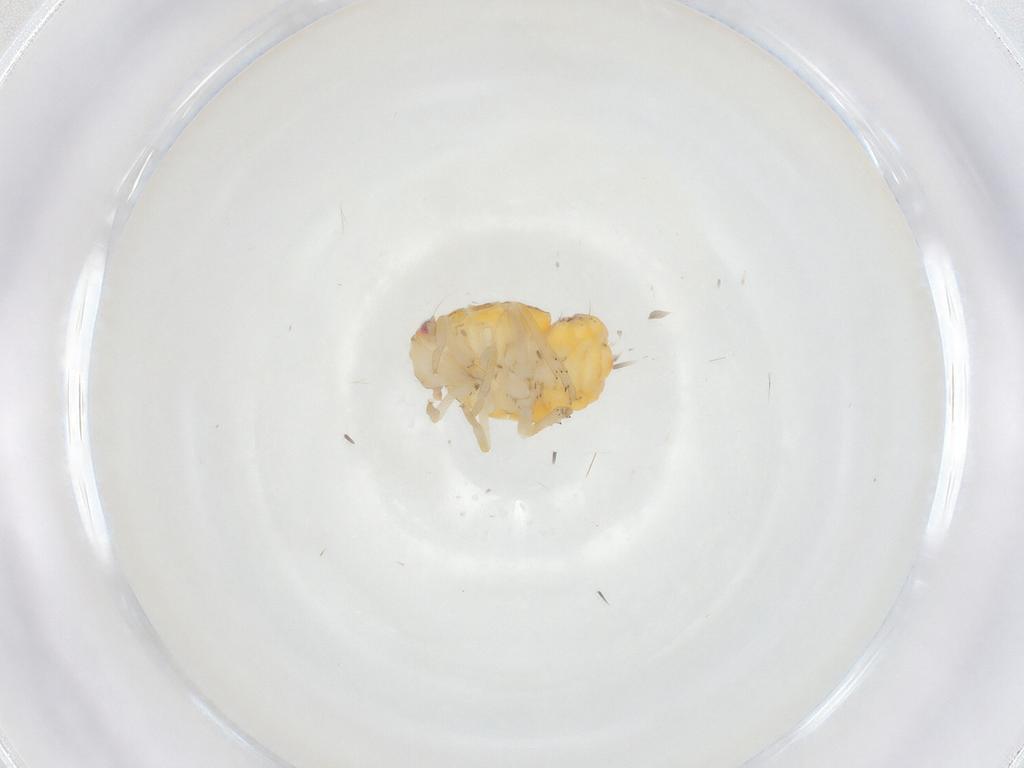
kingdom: Animalia
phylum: Arthropoda
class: Insecta
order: Hemiptera
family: Ricaniidae
